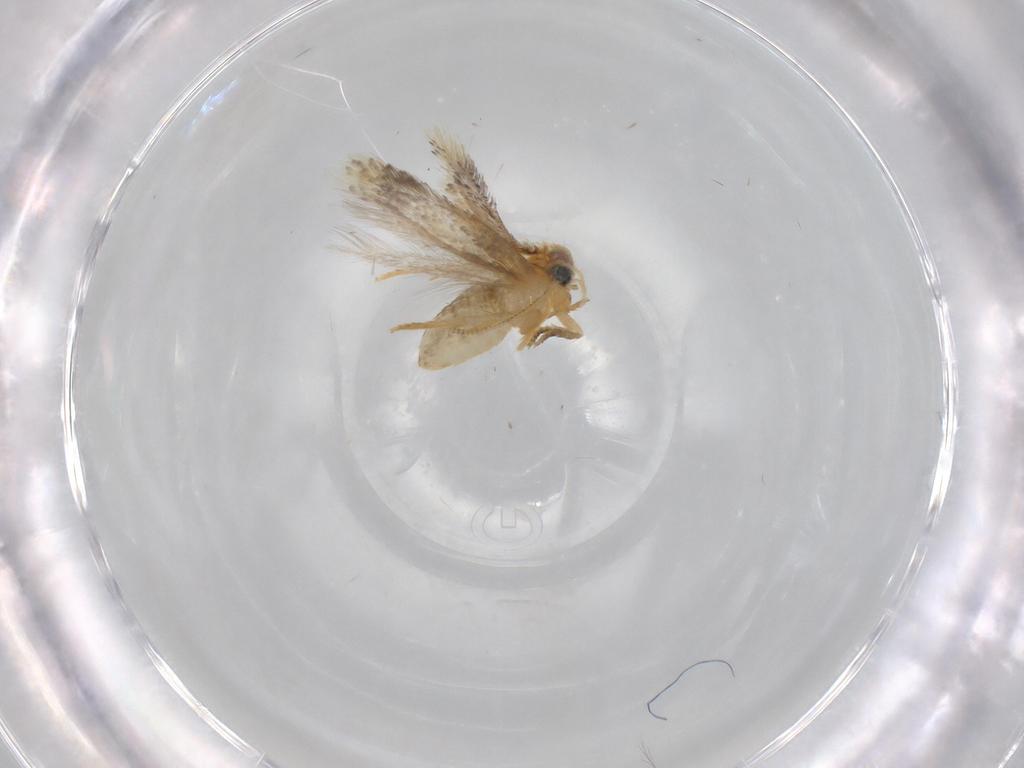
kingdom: Animalia
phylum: Arthropoda
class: Insecta
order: Lepidoptera
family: Nepticulidae
